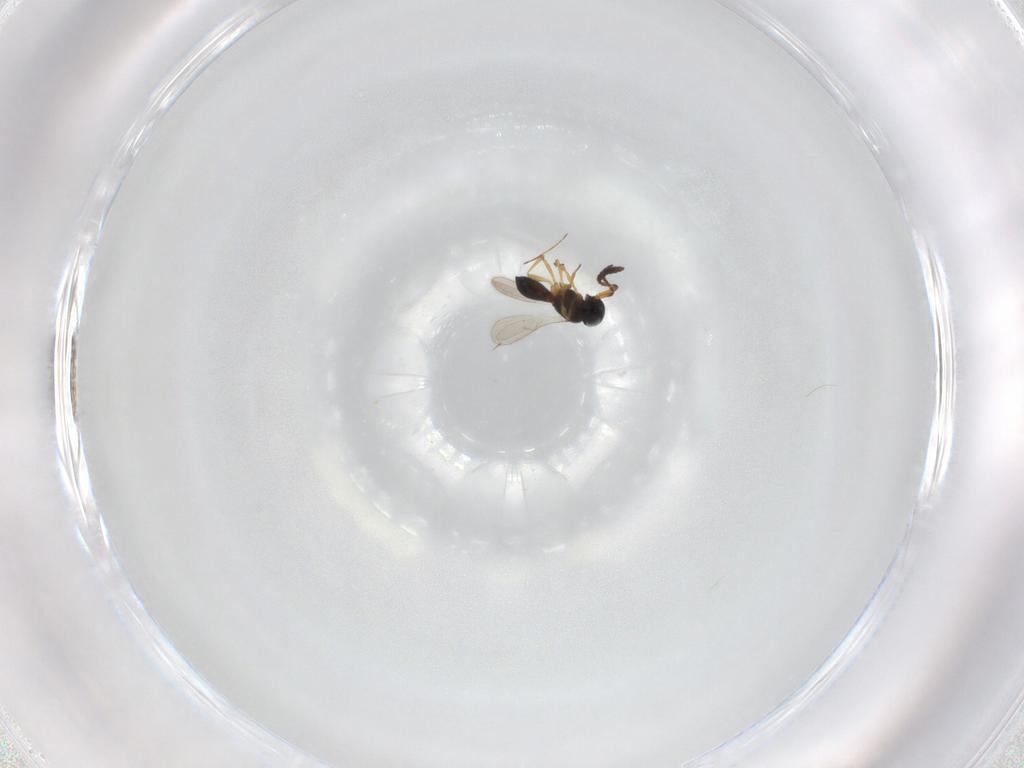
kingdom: Animalia
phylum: Arthropoda
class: Insecta
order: Hymenoptera
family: Scelionidae
